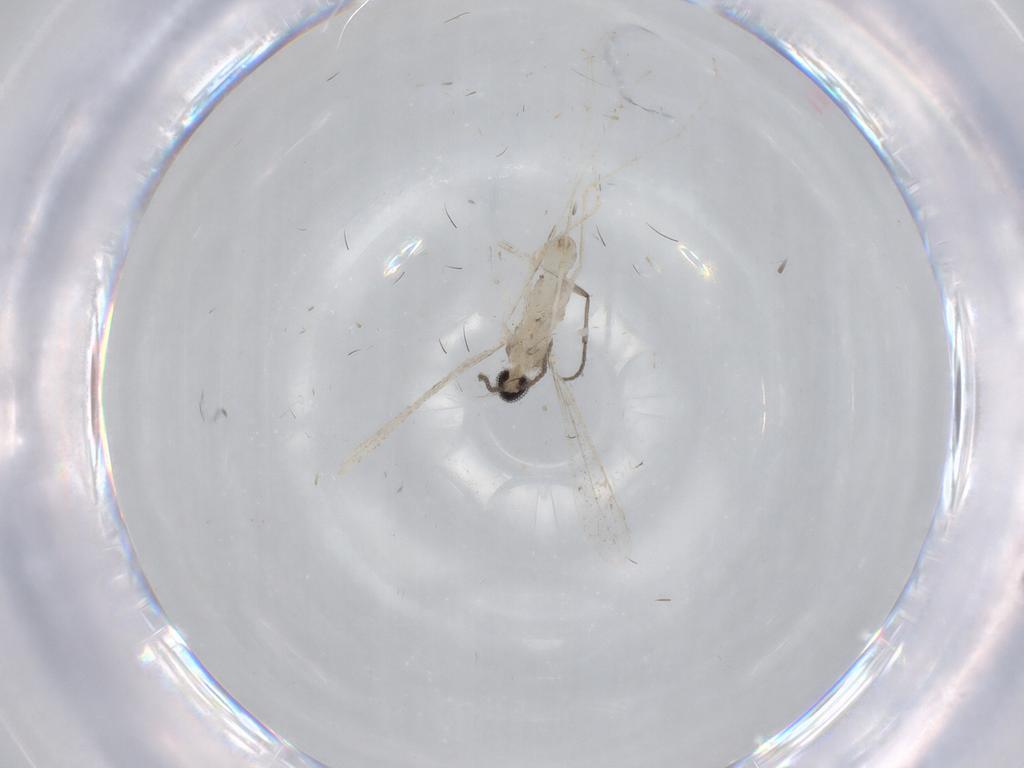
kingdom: Animalia
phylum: Arthropoda
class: Insecta
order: Diptera
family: Cecidomyiidae
